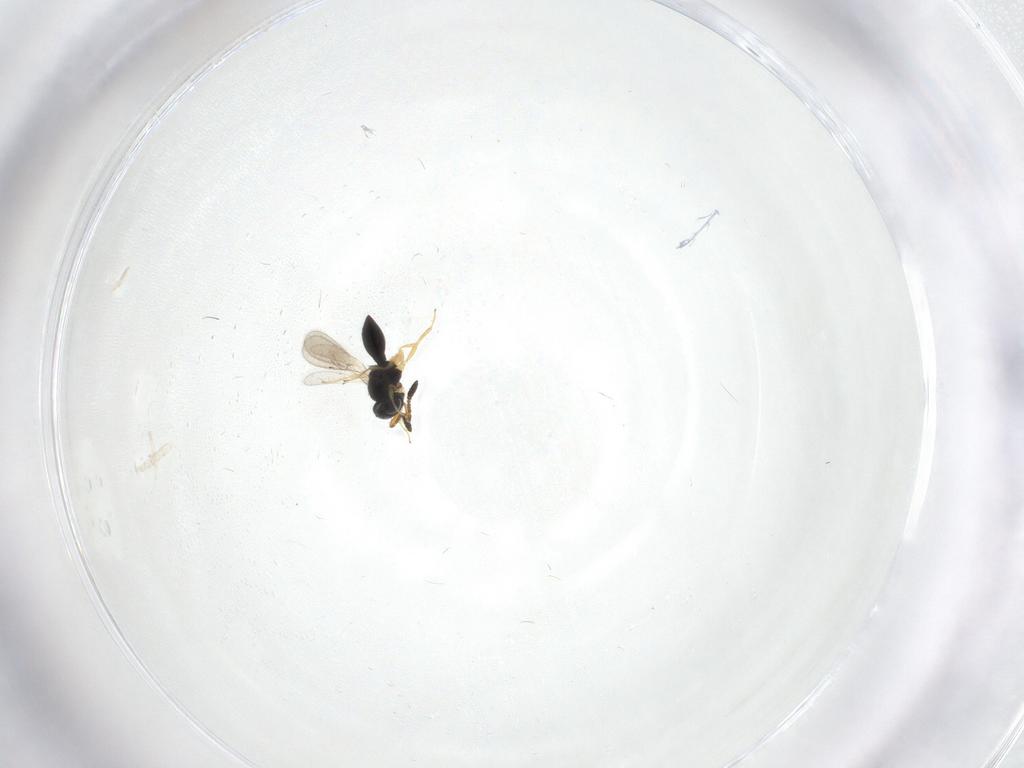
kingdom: Animalia
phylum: Arthropoda
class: Insecta
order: Hymenoptera
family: Scelionidae
